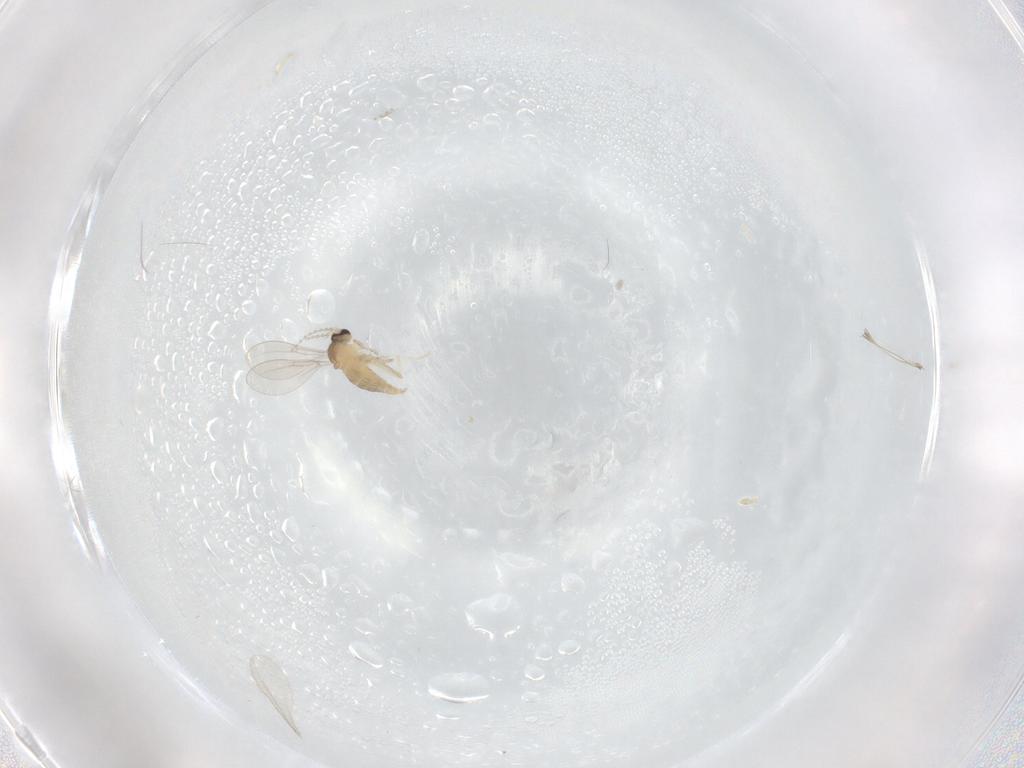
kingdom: Animalia
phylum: Arthropoda
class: Insecta
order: Diptera
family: Cecidomyiidae
